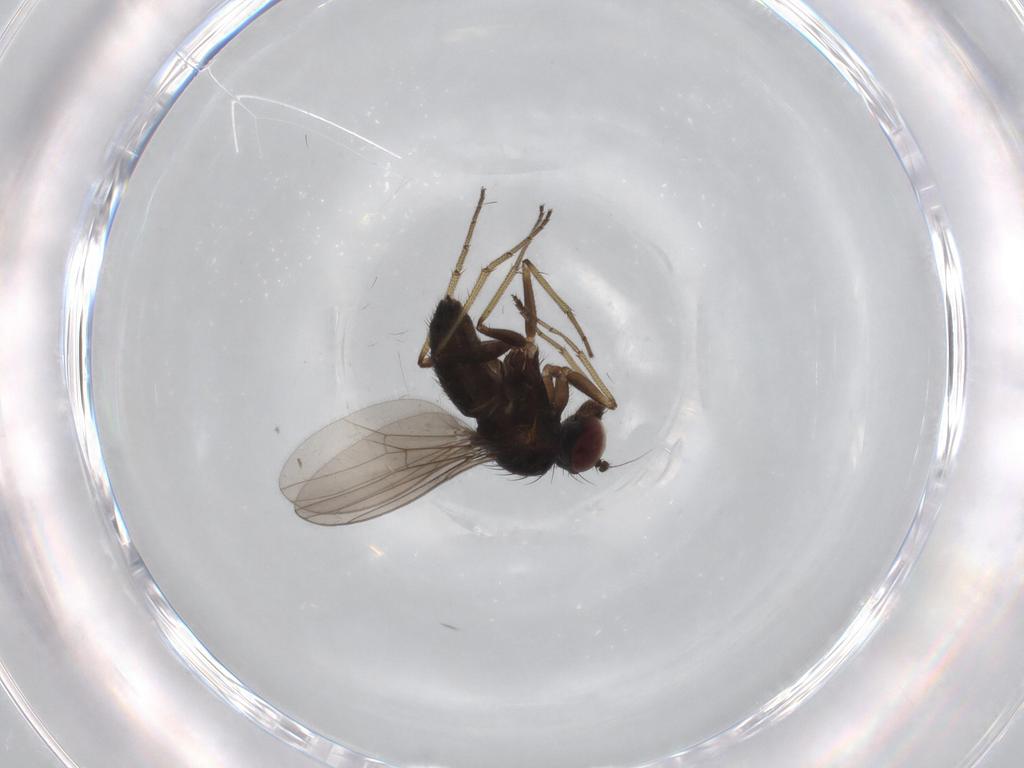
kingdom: Animalia
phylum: Arthropoda
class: Insecta
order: Diptera
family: Dolichopodidae
